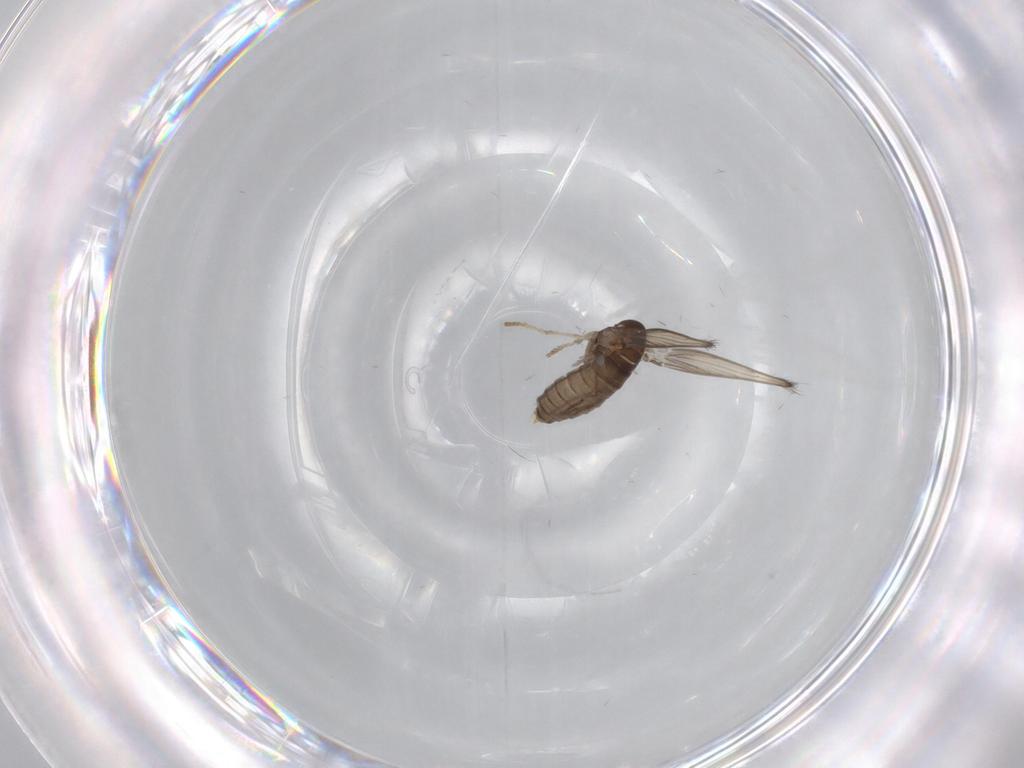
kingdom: Animalia
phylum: Arthropoda
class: Insecta
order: Diptera
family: Psychodidae
